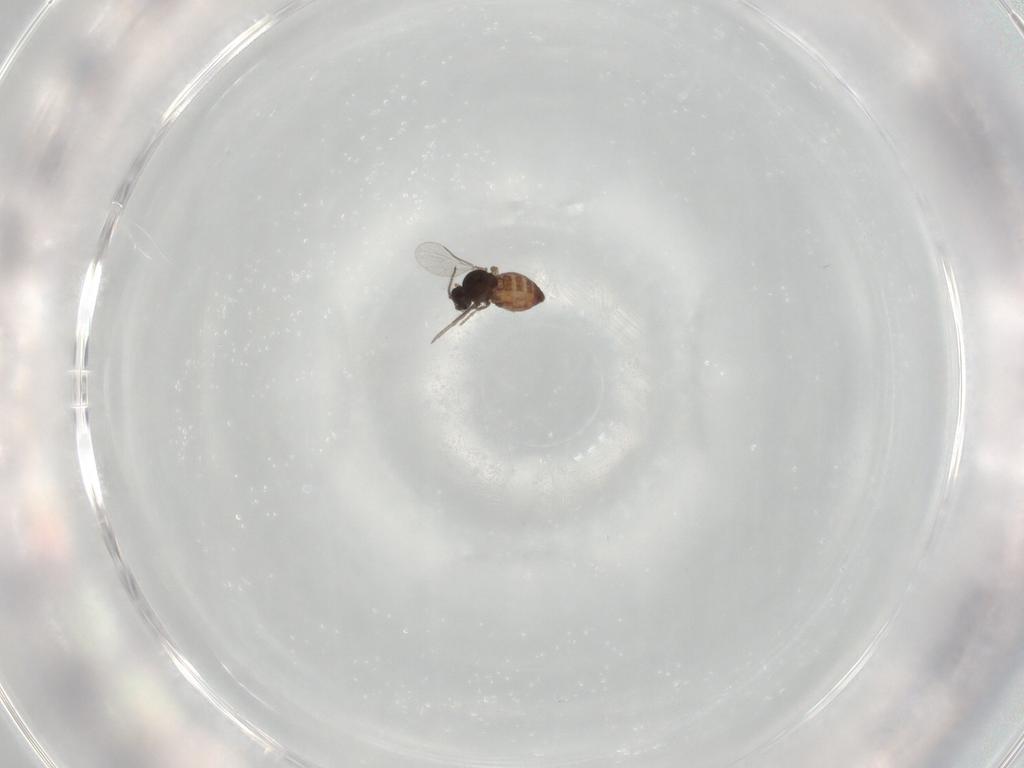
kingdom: Animalia
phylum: Arthropoda
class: Insecta
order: Diptera
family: Ceratopogonidae
